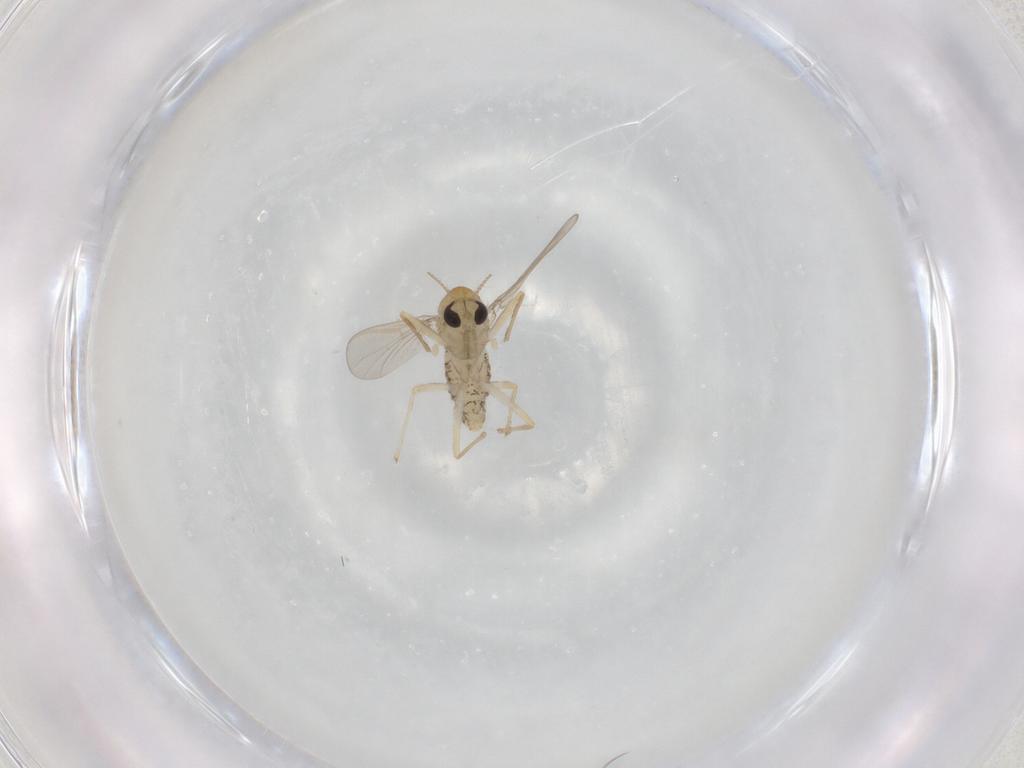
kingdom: Animalia
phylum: Arthropoda
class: Insecta
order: Diptera
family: Chironomidae
